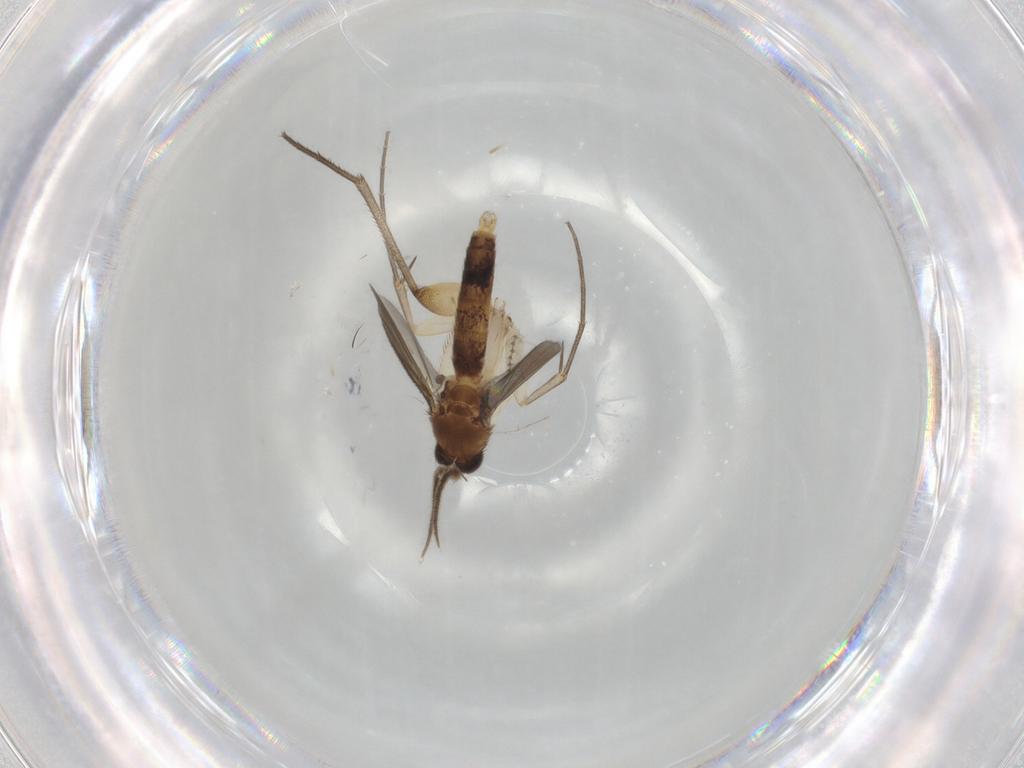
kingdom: Animalia
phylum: Arthropoda
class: Insecta
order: Diptera
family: Psychodidae
